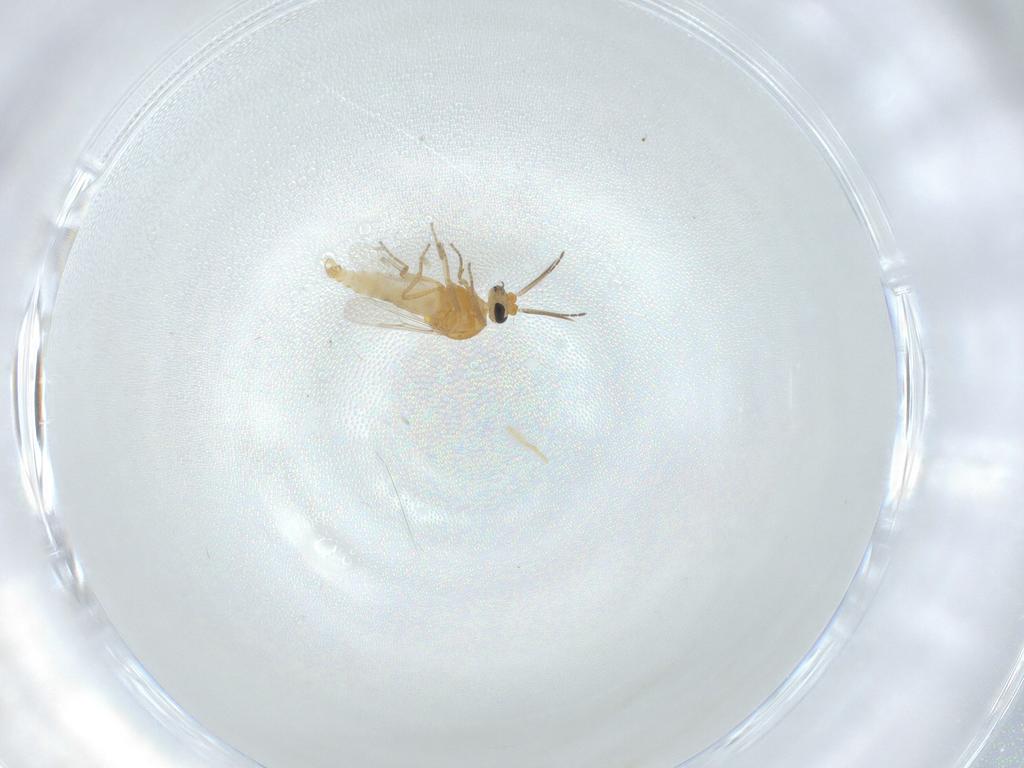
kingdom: Animalia
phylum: Arthropoda
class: Insecta
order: Diptera
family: Ceratopogonidae
